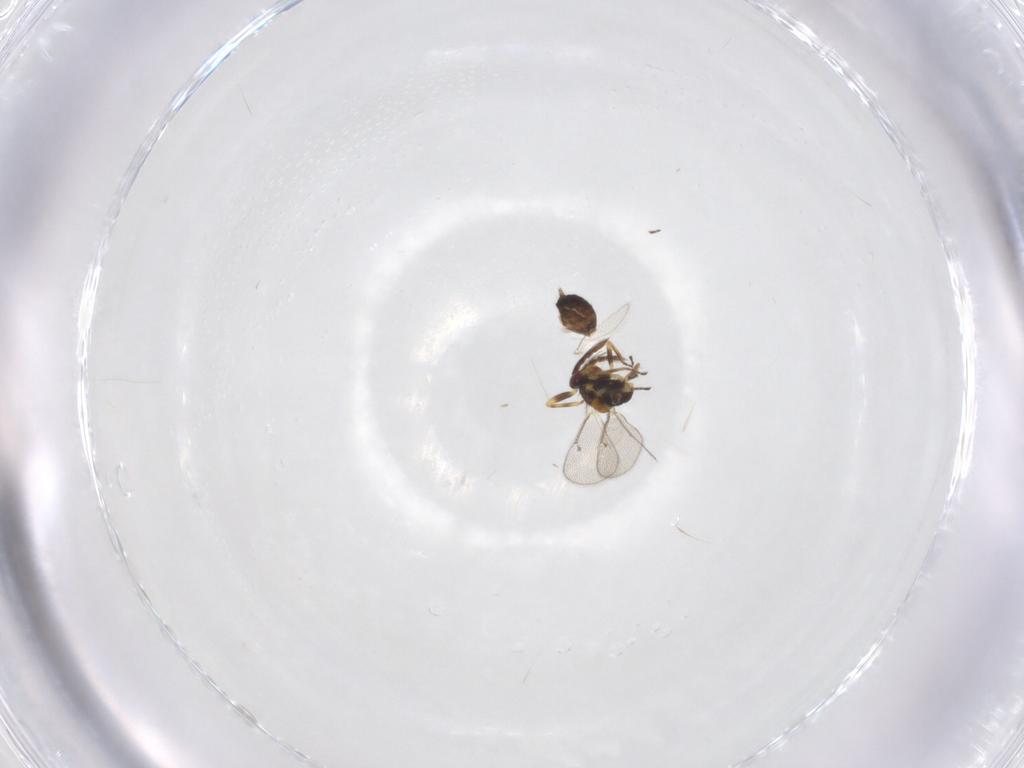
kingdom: Animalia
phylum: Arthropoda
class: Insecta
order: Hymenoptera
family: Eulophidae
